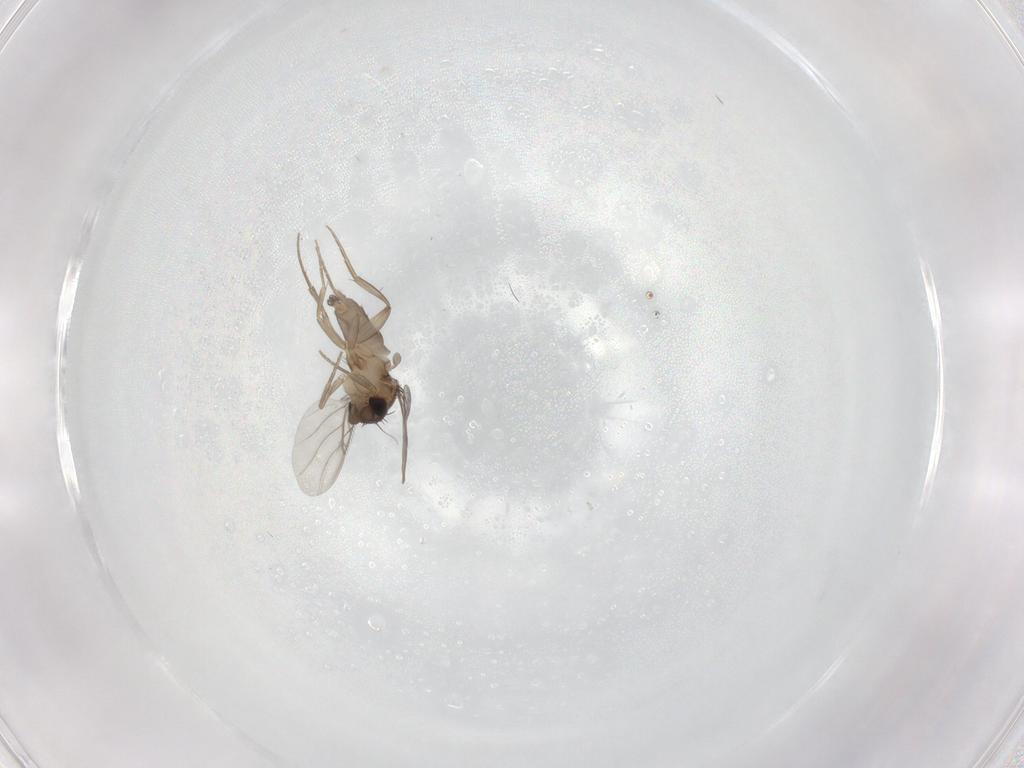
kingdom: Animalia
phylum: Arthropoda
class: Insecta
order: Diptera
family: Phoridae
